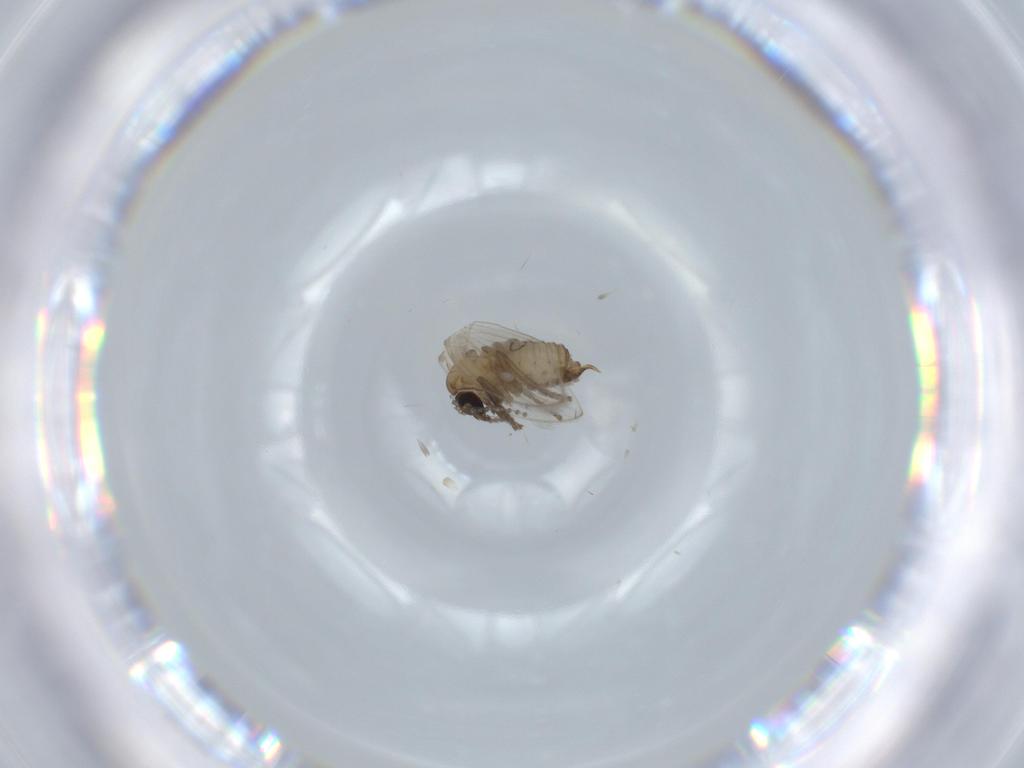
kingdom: Animalia
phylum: Arthropoda
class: Insecta
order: Diptera
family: Psychodidae
